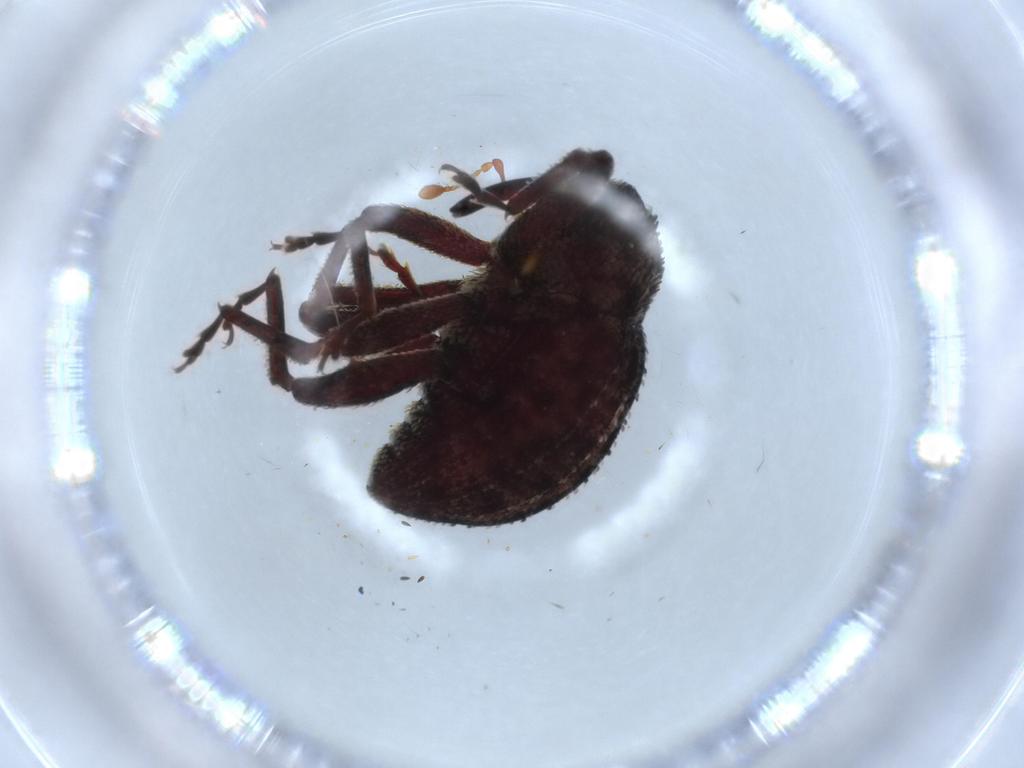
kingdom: Animalia
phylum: Arthropoda
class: Insecta
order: Coleoptera
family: Curculionidae
